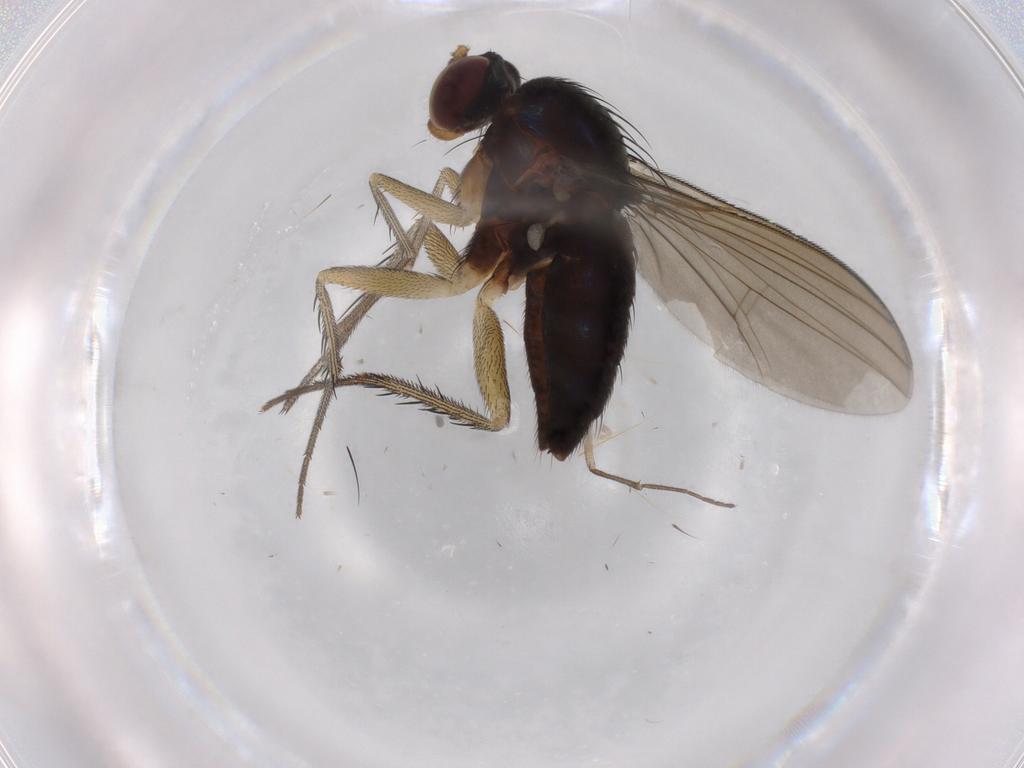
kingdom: Animalia
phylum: Arthropoda
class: Insecta
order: Diptera
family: Dolichopodidae
